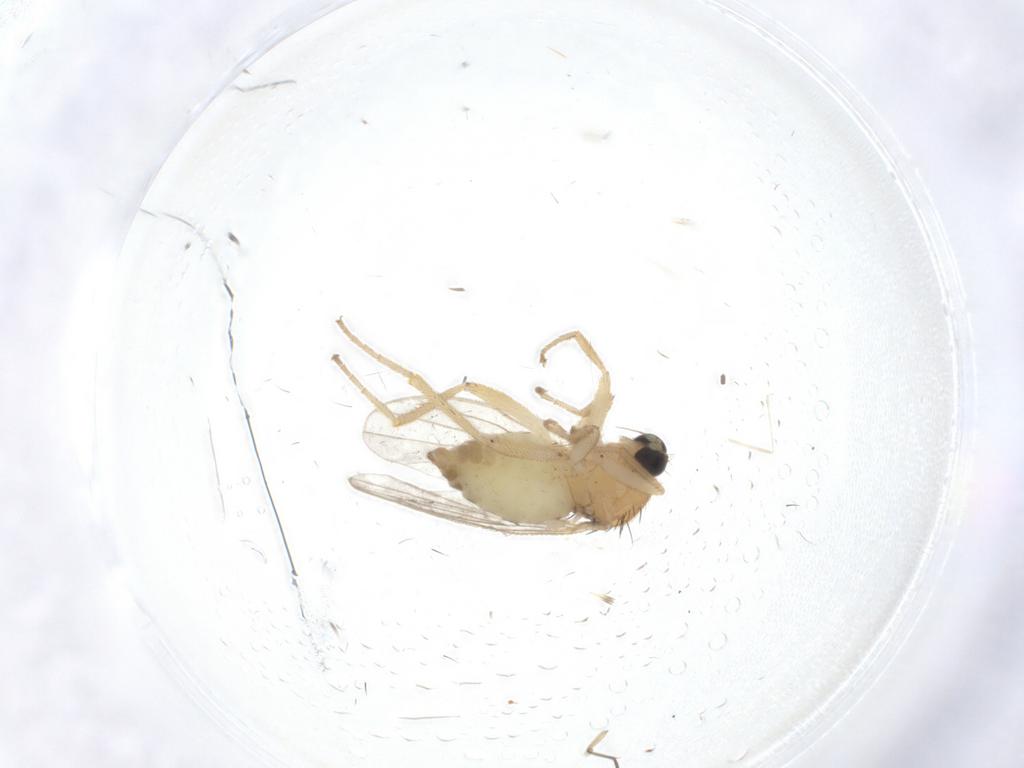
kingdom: Animalia
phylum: Arthropoda
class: Insecta
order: Diptera
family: Hybotidae
